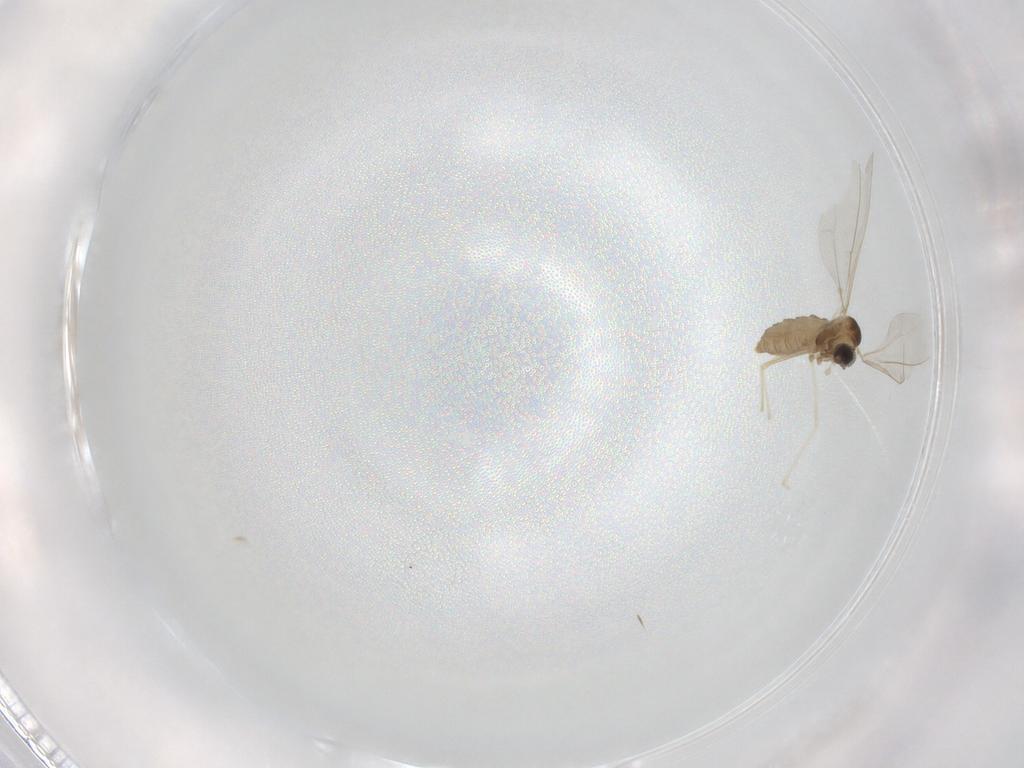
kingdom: Animalia
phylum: Arthropoda
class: Insecta
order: Diptera
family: Cecidomyiidae
